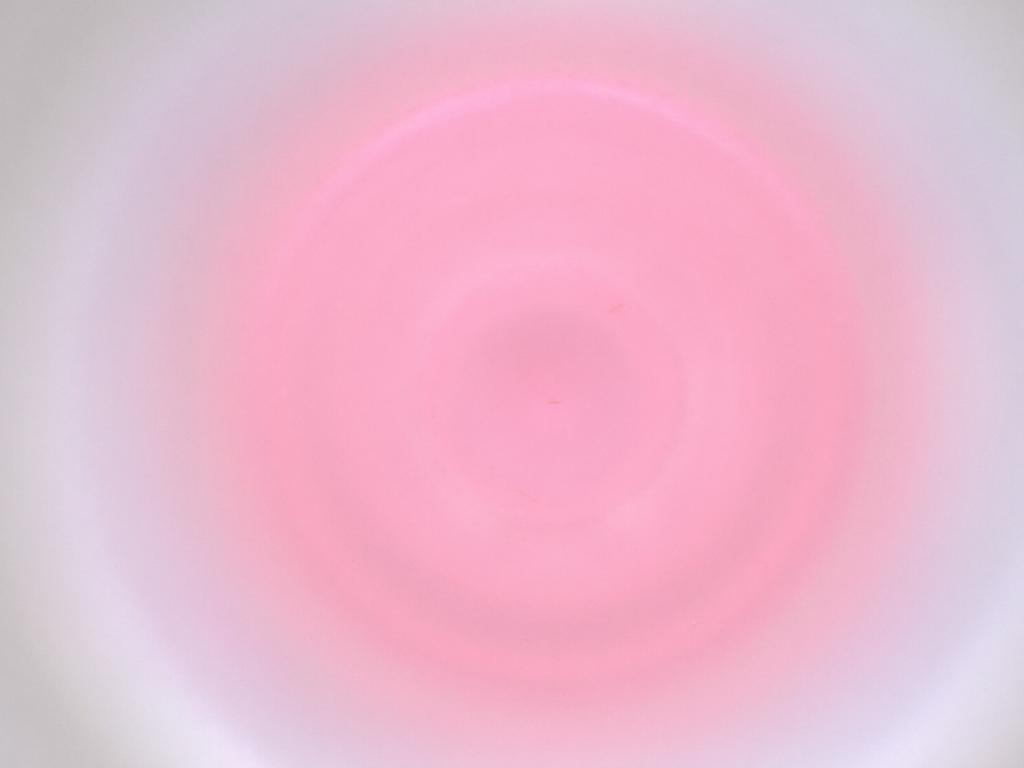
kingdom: Animalia
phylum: Arthropoda
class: Insecta
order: Diptera
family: Cecidomyiidae
